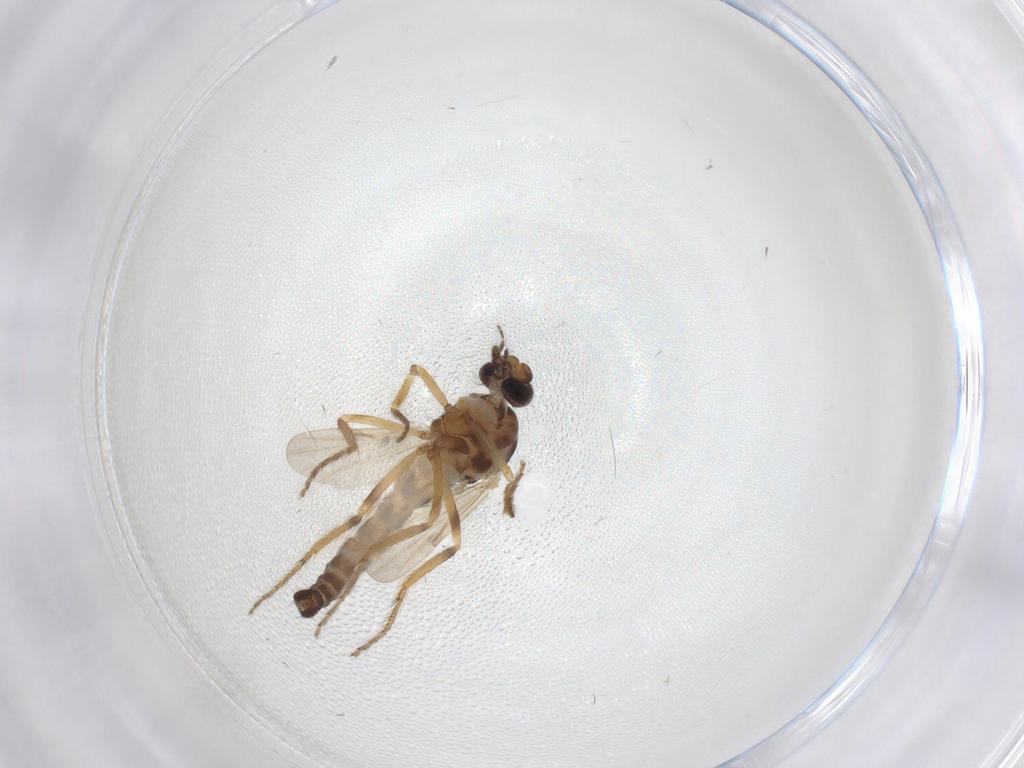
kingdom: Animalia
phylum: Arthropoda
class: Insecta
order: Diptera
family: Ceratopogonidae
